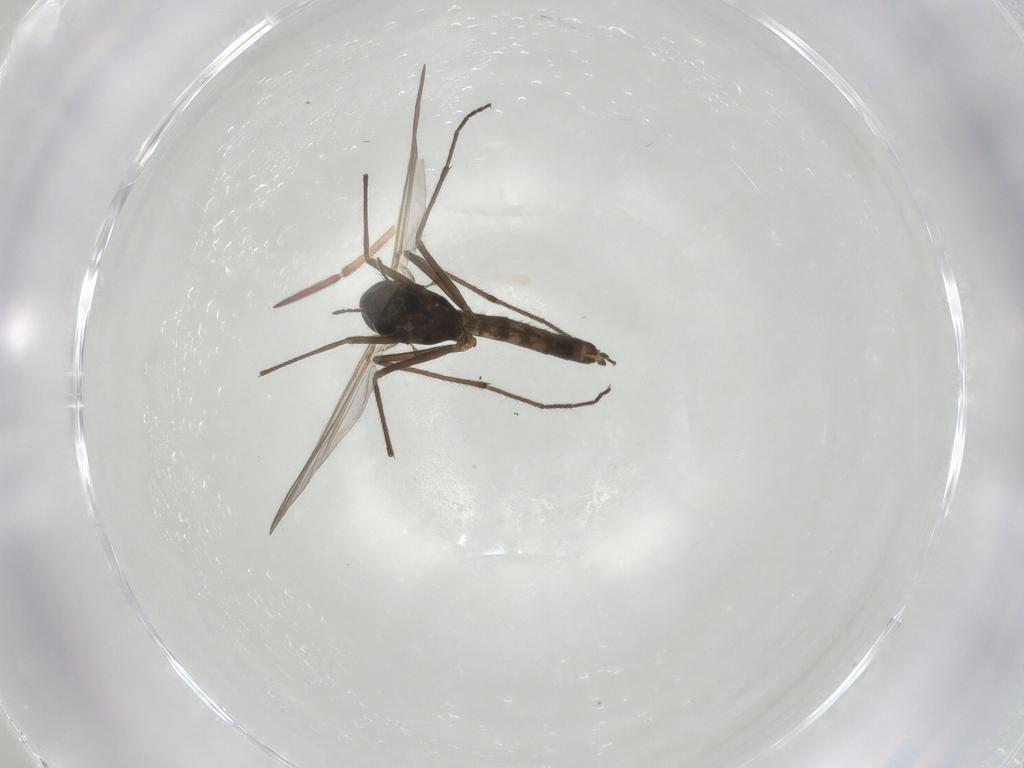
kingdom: Animalia
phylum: Arthropoda
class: Insecta
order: Diptera
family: Chironomidae
